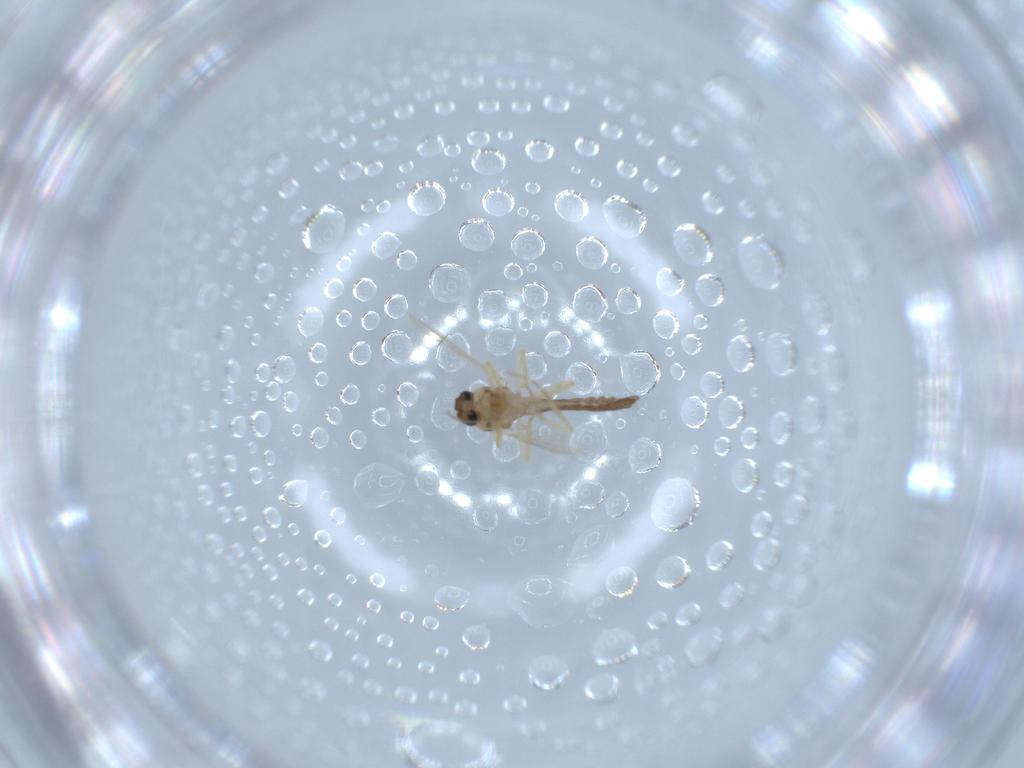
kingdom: Animalia
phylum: Arthropoda
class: Insecta
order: Diptera
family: Ceratopogonidae
